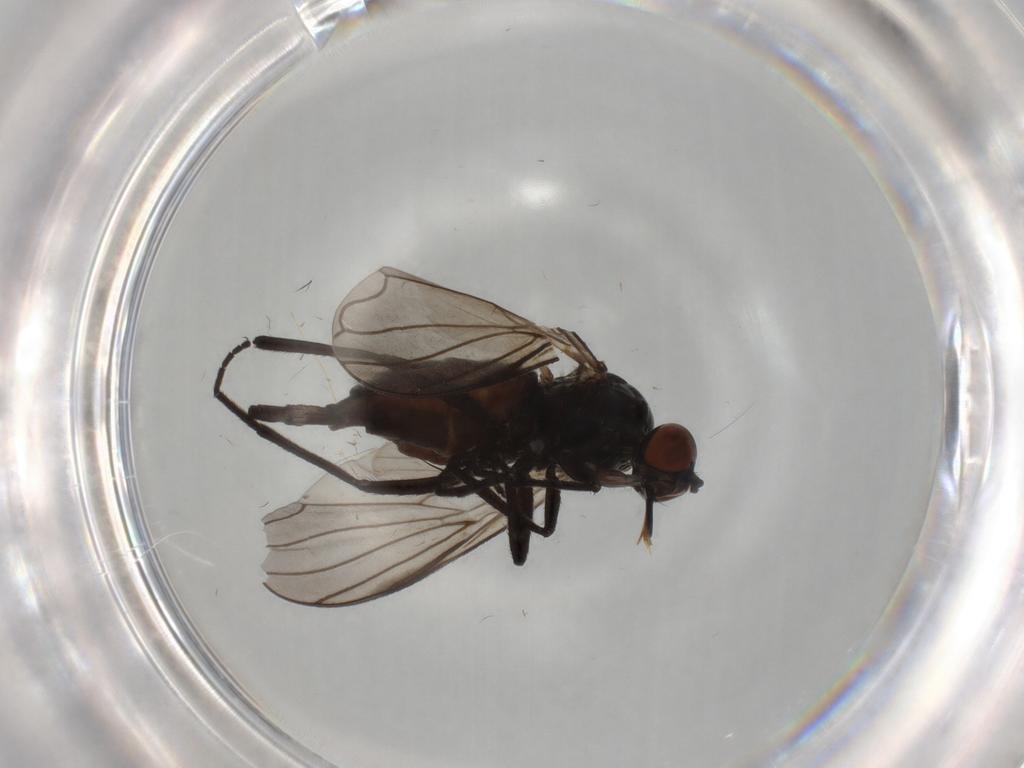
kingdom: Animalia
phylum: Arthropoda
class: Insecta
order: Diptera
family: Empididae
